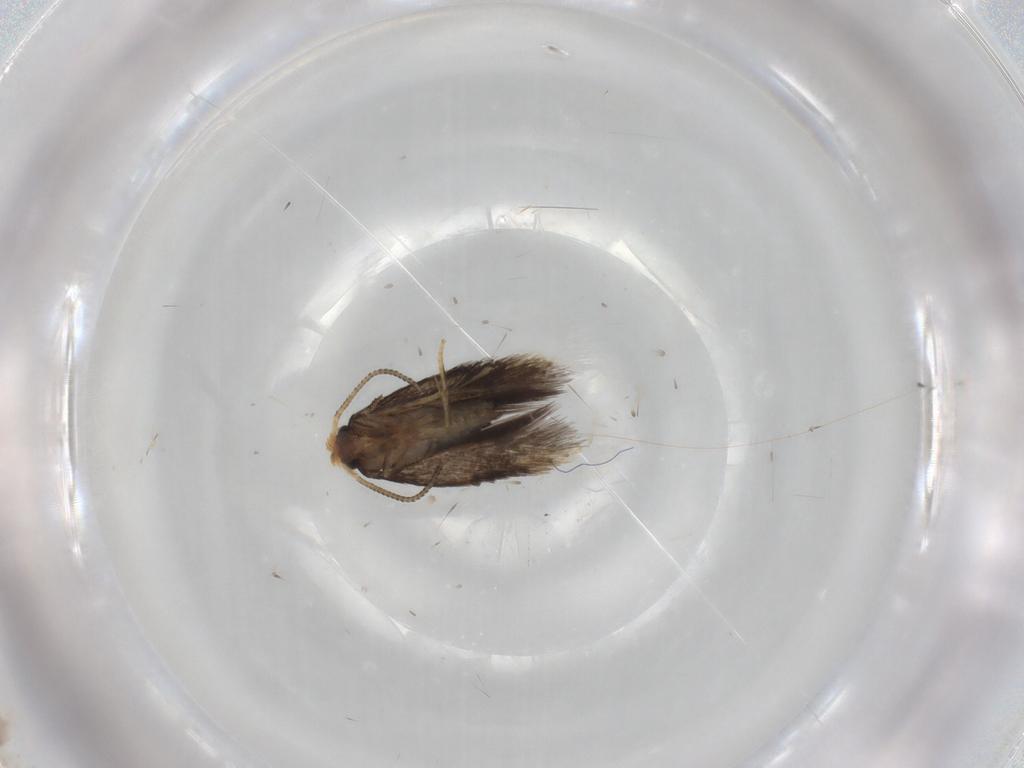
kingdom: Animalia
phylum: Arthropoda
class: Insecta
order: Lepidoptera
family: Nepticulidae
